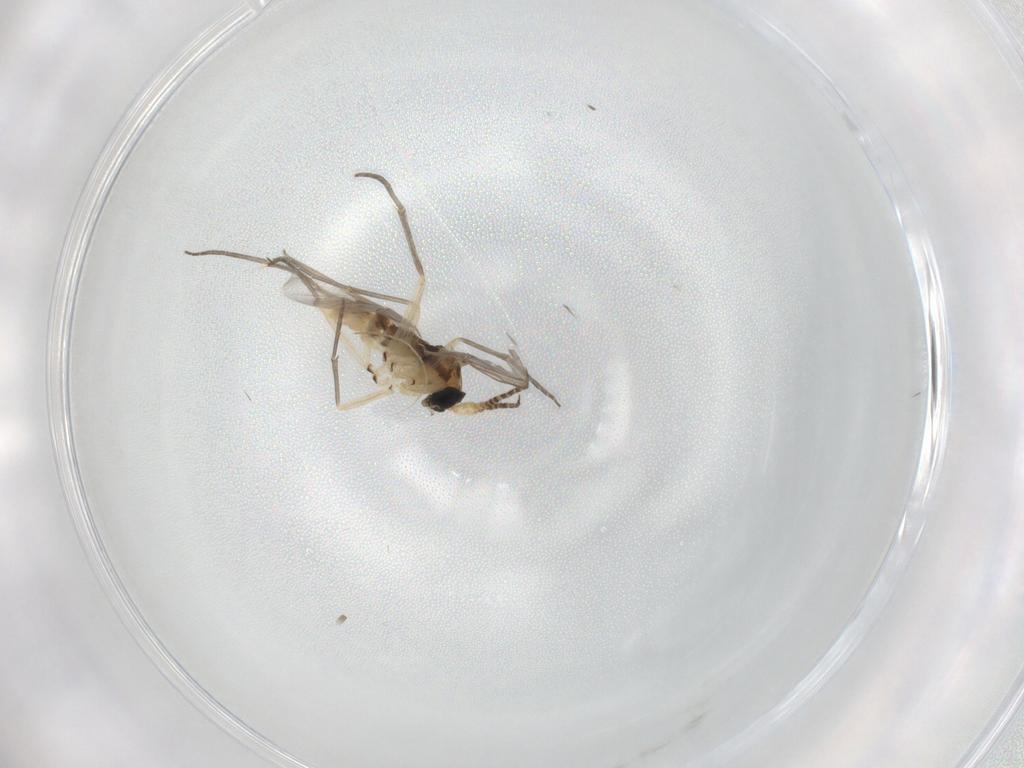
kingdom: Animalia
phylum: Arthropoda
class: Insecta
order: Diptera
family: Sciaridae
